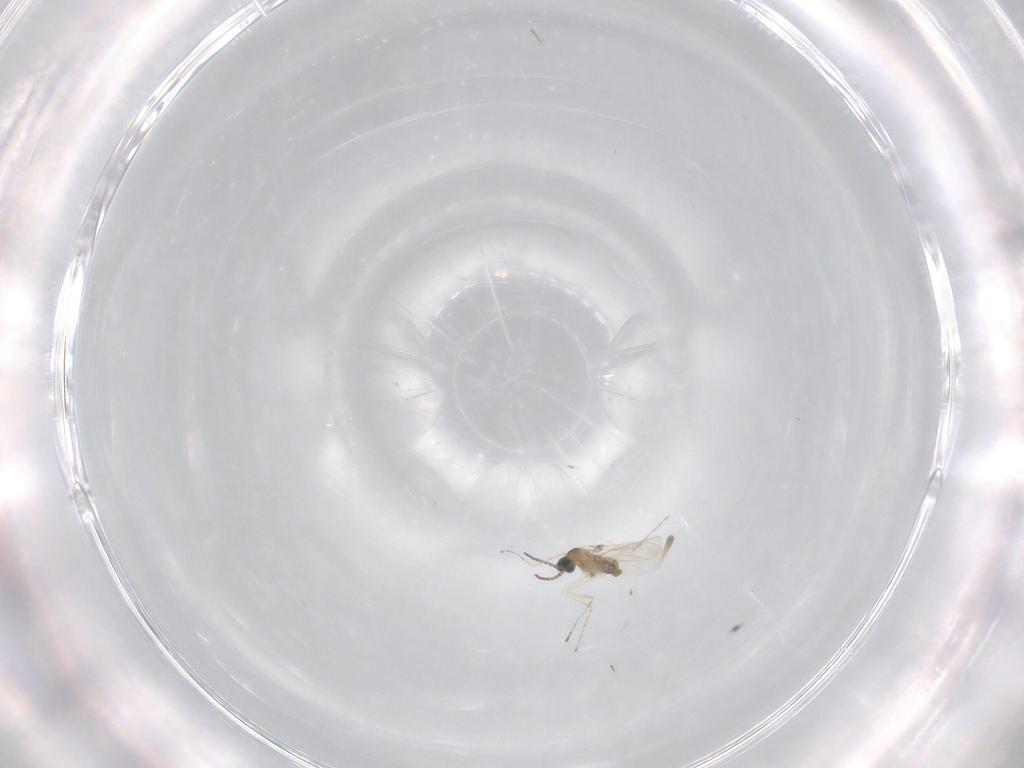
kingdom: Animalia
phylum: Arthropoda
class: Insecta
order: Diptera
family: Cecidomyiidae
